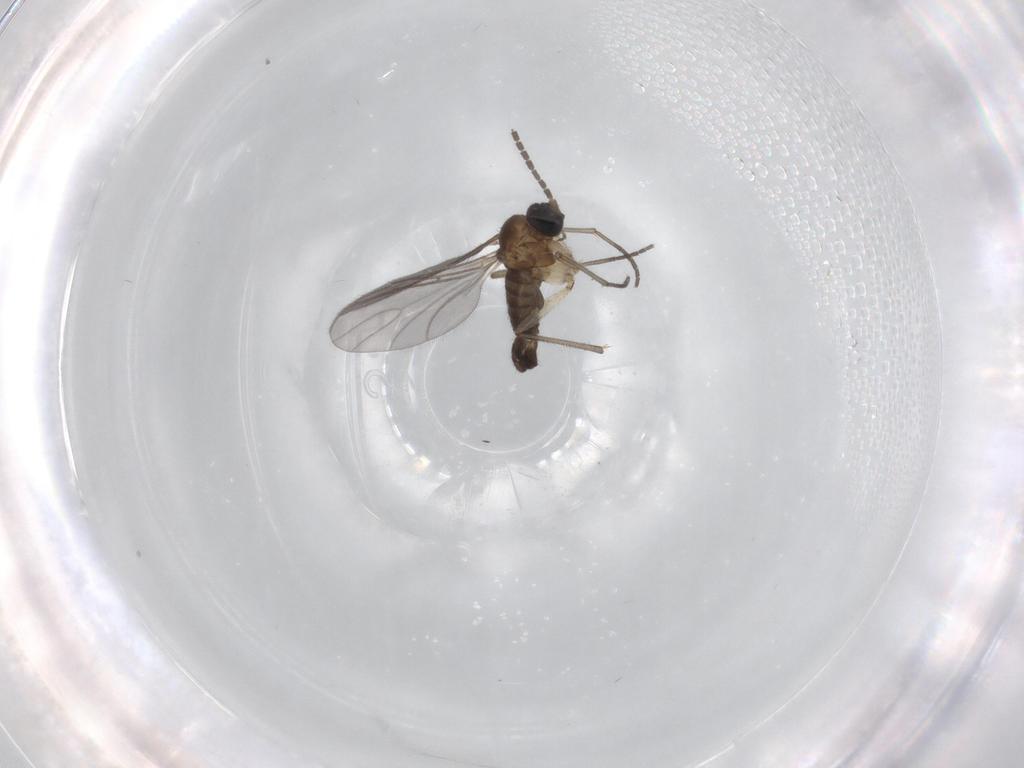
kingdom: Animalia
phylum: Arthropoda
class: Insecta
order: Diptera
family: Sciaridae
